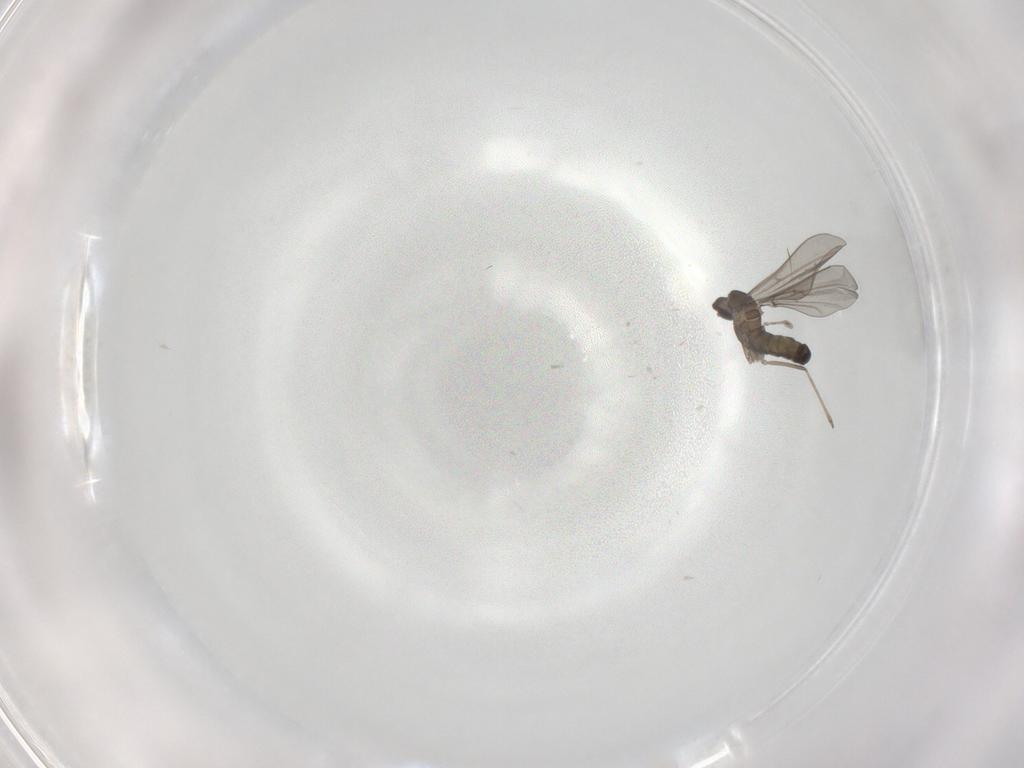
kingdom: Animalia
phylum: Arthropoda
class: Insecta
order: Diptera
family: Cecidomyiidae
